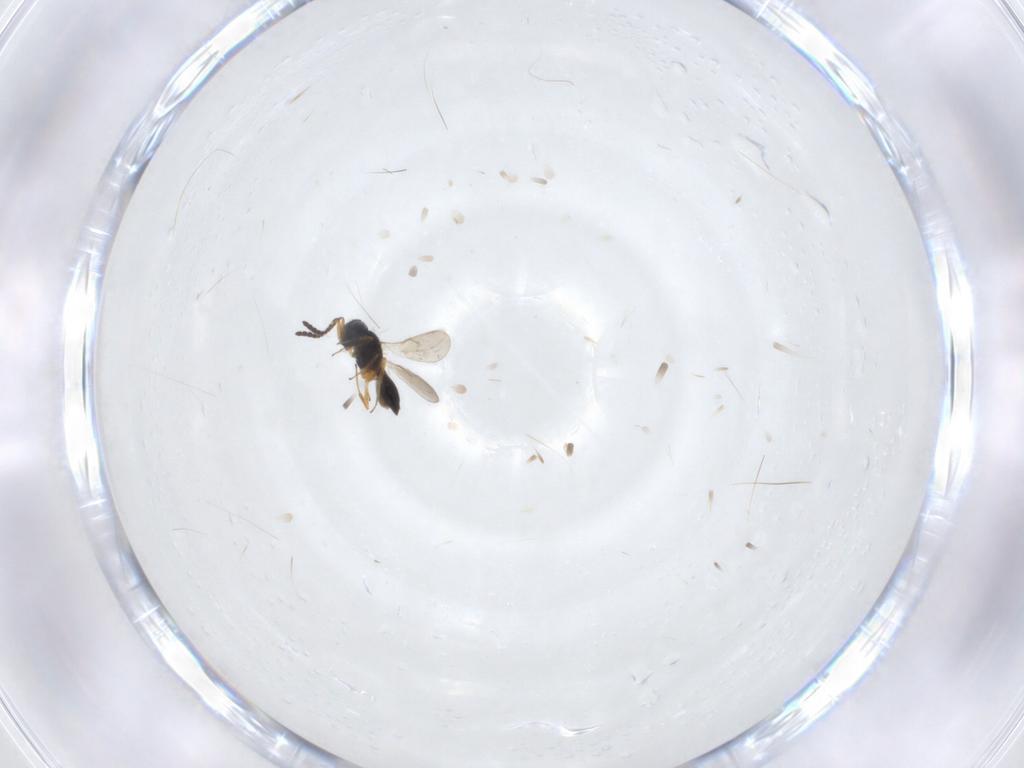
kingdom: Animalia
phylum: Arthropoda
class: Insecta
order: Hymenoptera
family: Scelionidae
